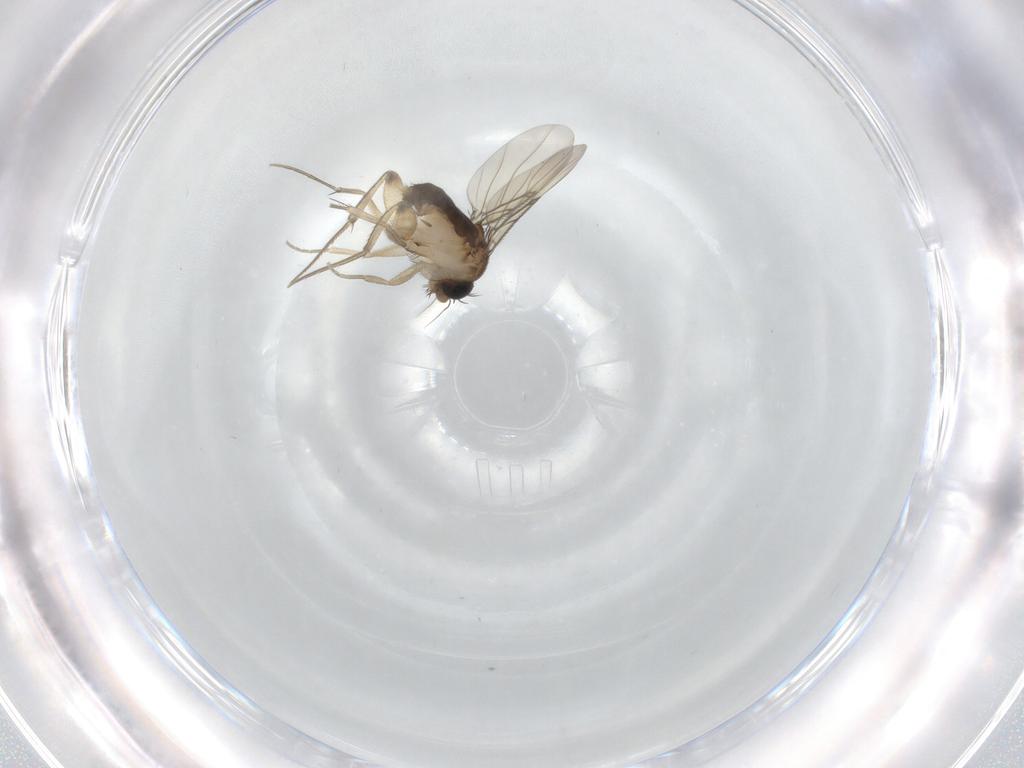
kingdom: Animalia
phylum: Arthropoda
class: Insecta
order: Diptera
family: Phoridae
